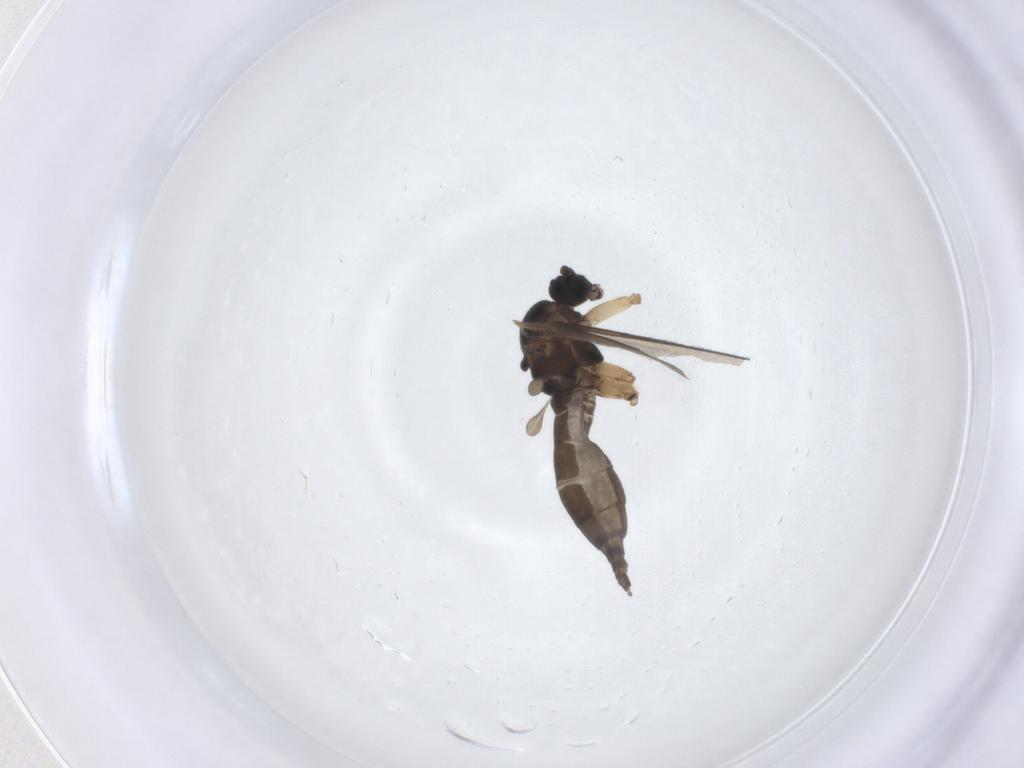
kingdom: Animalia
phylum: Arthropoda
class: Insecta
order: Diptera
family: Sciaridae
